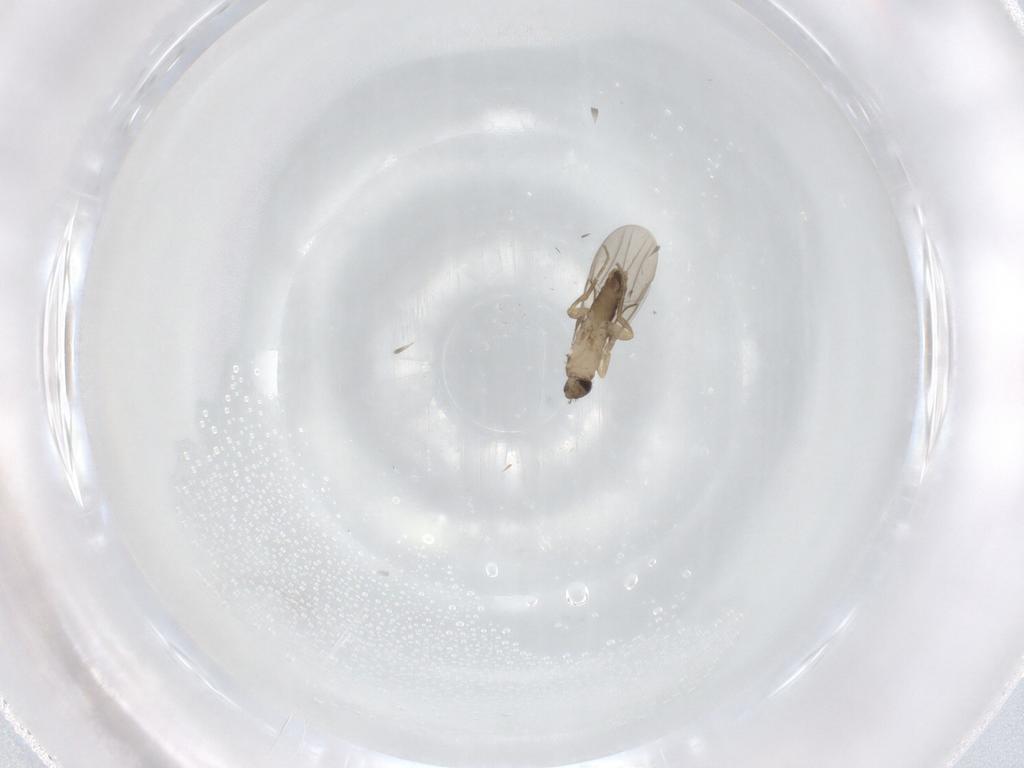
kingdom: Animalia
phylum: Arthropoda
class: Insecta
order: Diptera
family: Phoridae
